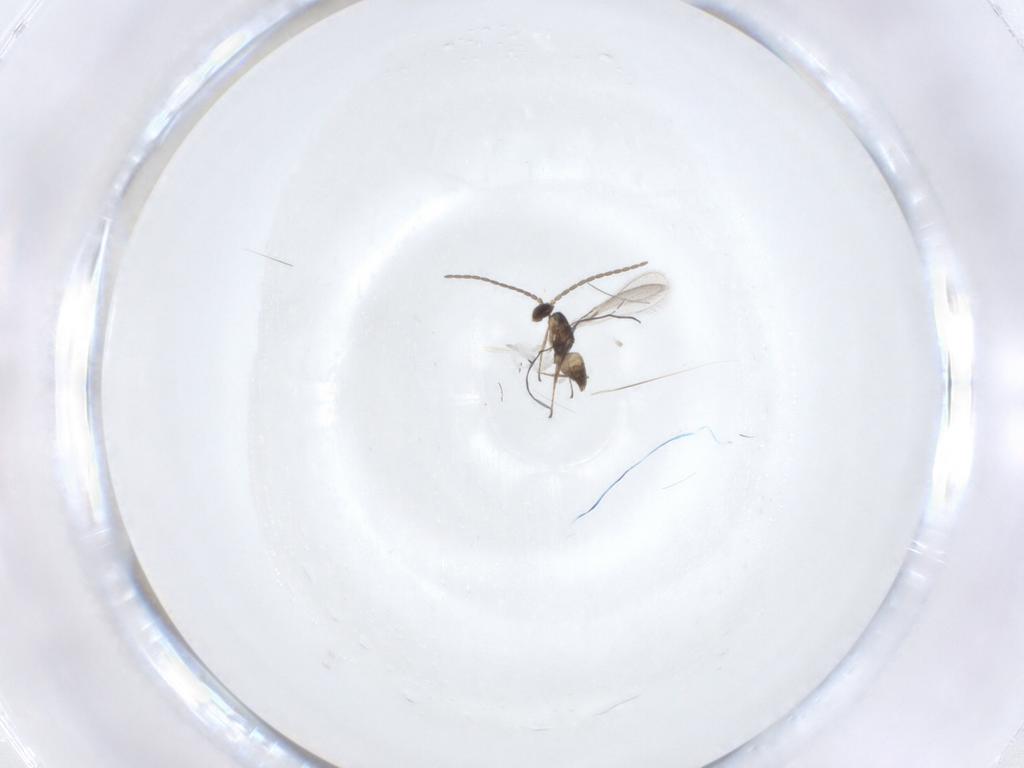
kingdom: Animalia
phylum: Arthropoda
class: Insecta
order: Hymenoptera
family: Mymaridae
